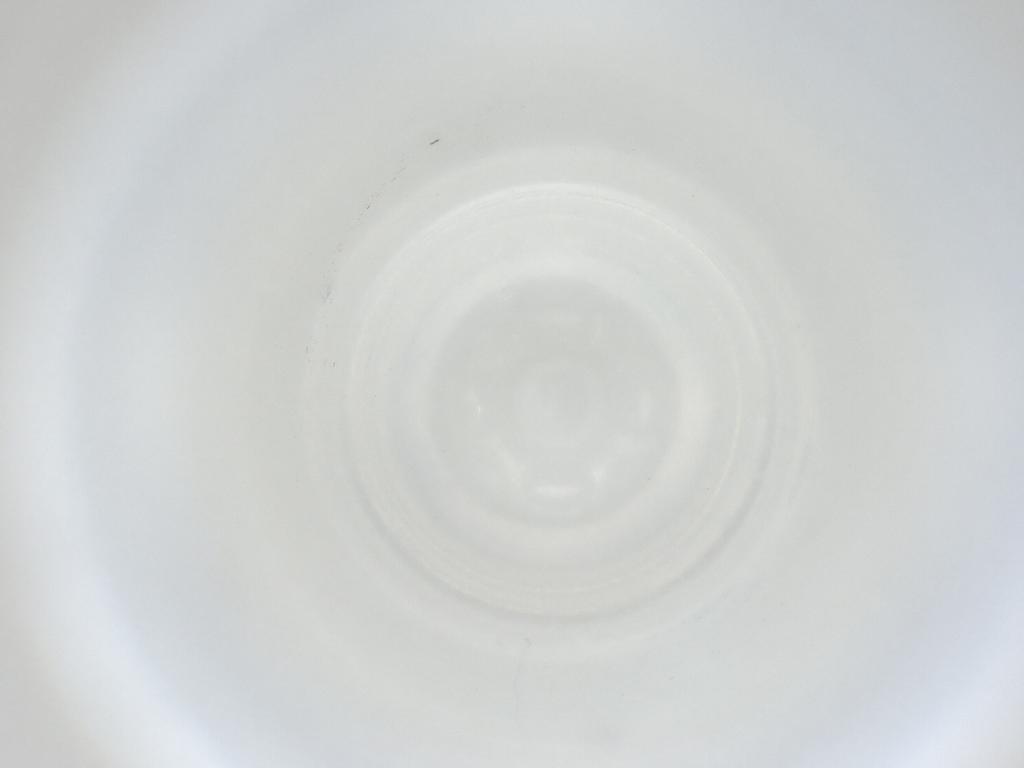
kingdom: Animalia
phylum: Arthropoda
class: Insecta
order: Diptera
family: Cecidomyiidae
